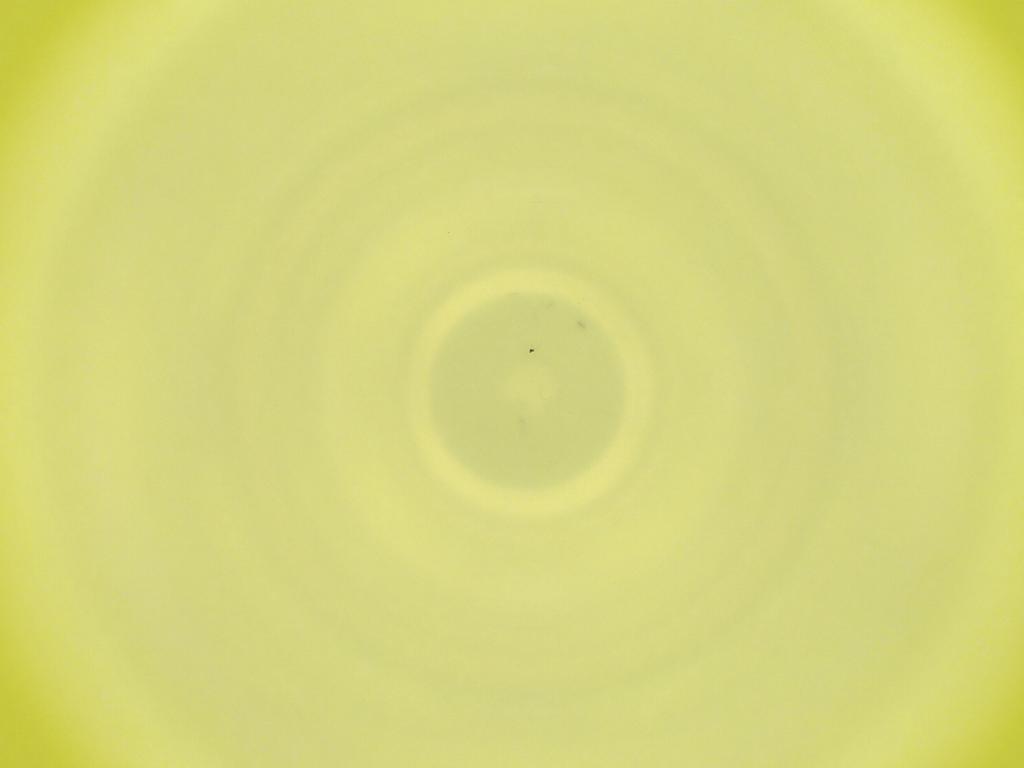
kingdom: Animalia
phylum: Arthropoda
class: Insecta
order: Diptera
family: Cecidomyiidae
